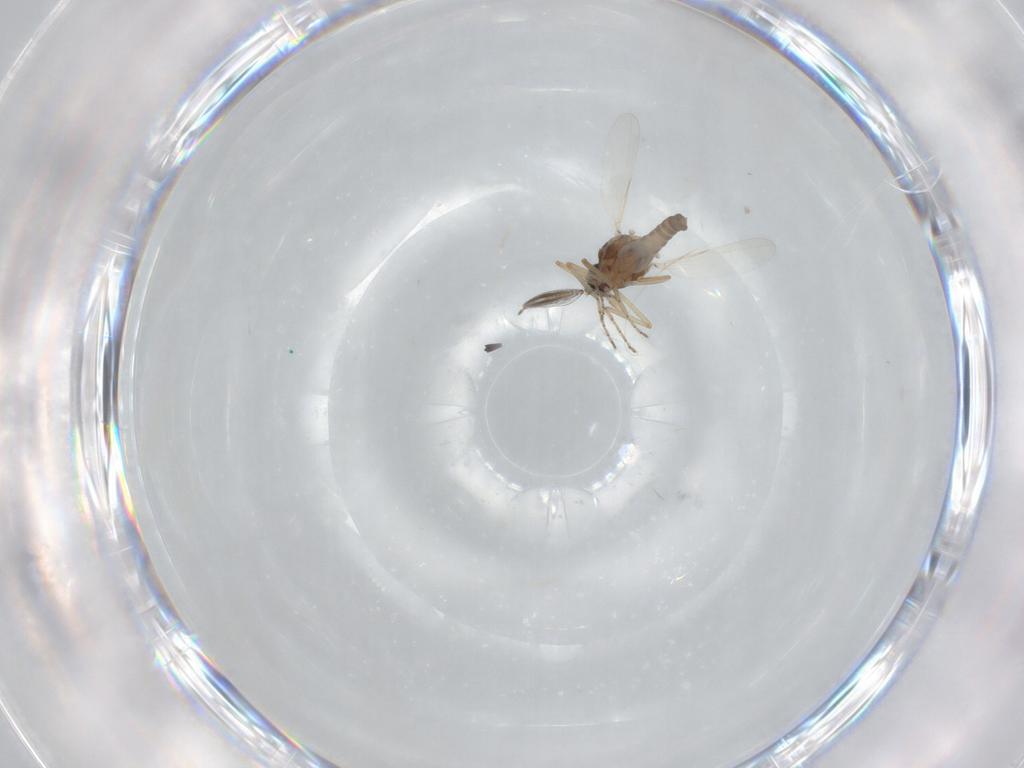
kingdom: Animalia
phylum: Arthropoda
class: Insecta
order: Diptera
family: Ceratopogonidae
